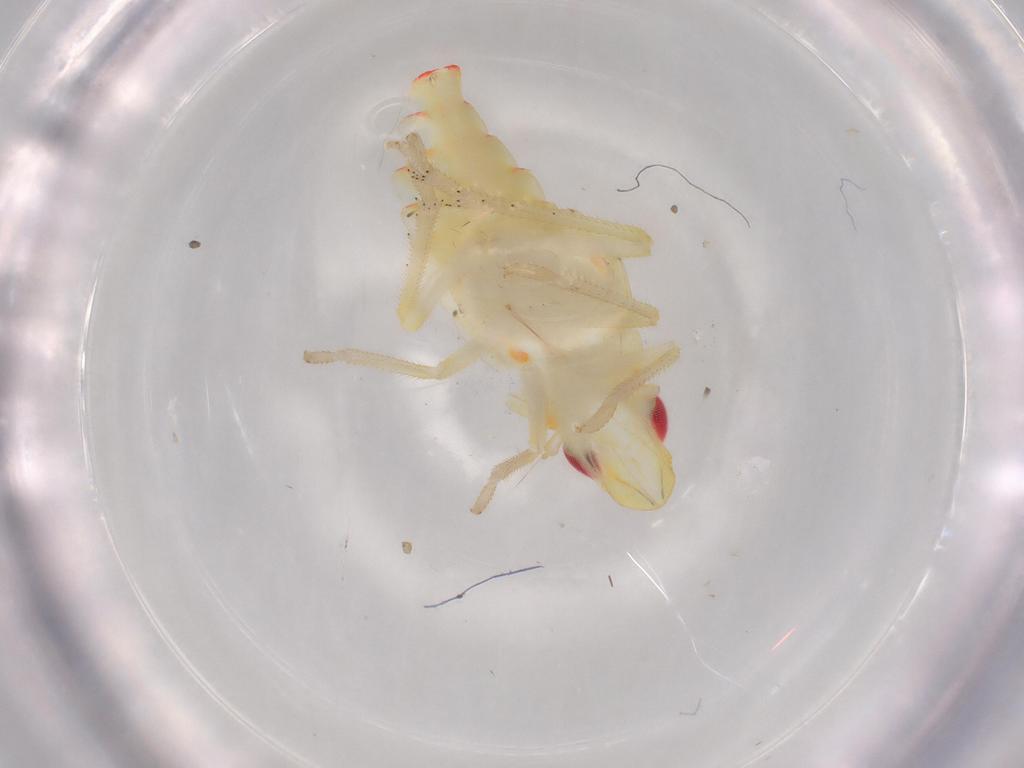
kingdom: Animalia
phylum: Arthropoda
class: Insecta
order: Hemiptera
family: Tropiduchidae
